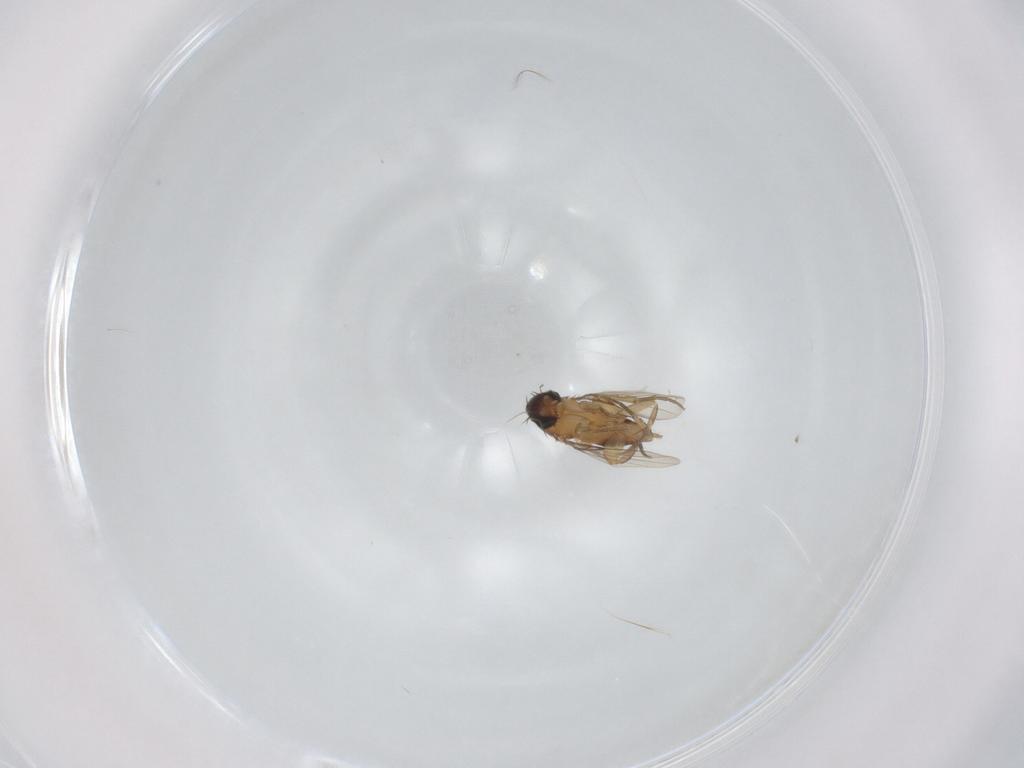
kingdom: Animalia
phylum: Arthropoda
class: Insecta
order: Diptera
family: Phoridae
